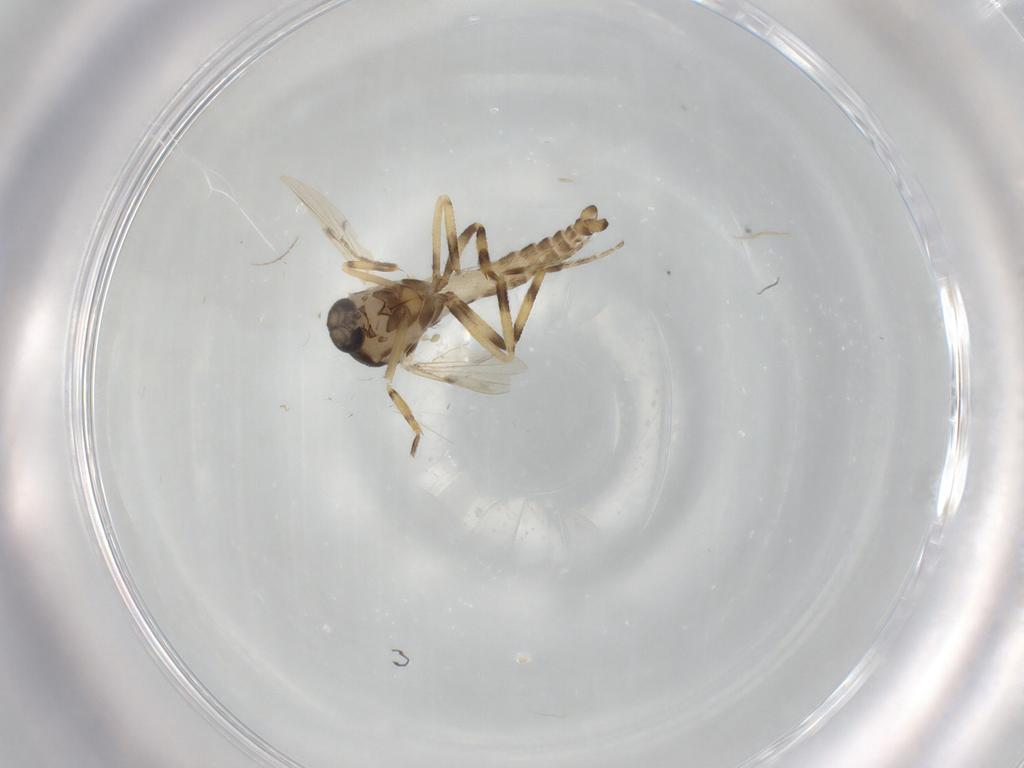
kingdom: Animalia
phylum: Arthropoda
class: Insecta
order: Diptera
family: Ceratopogonidae
